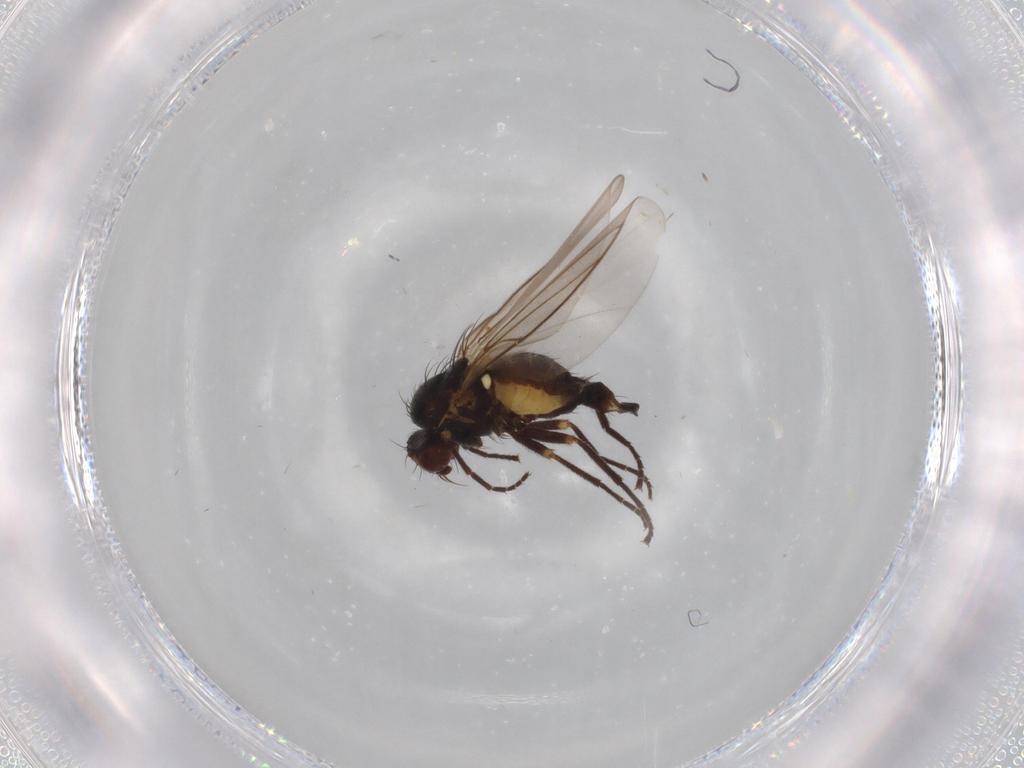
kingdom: Animalia
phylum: Arthropoda
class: Insecta
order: Diptera
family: Agromyzidae
